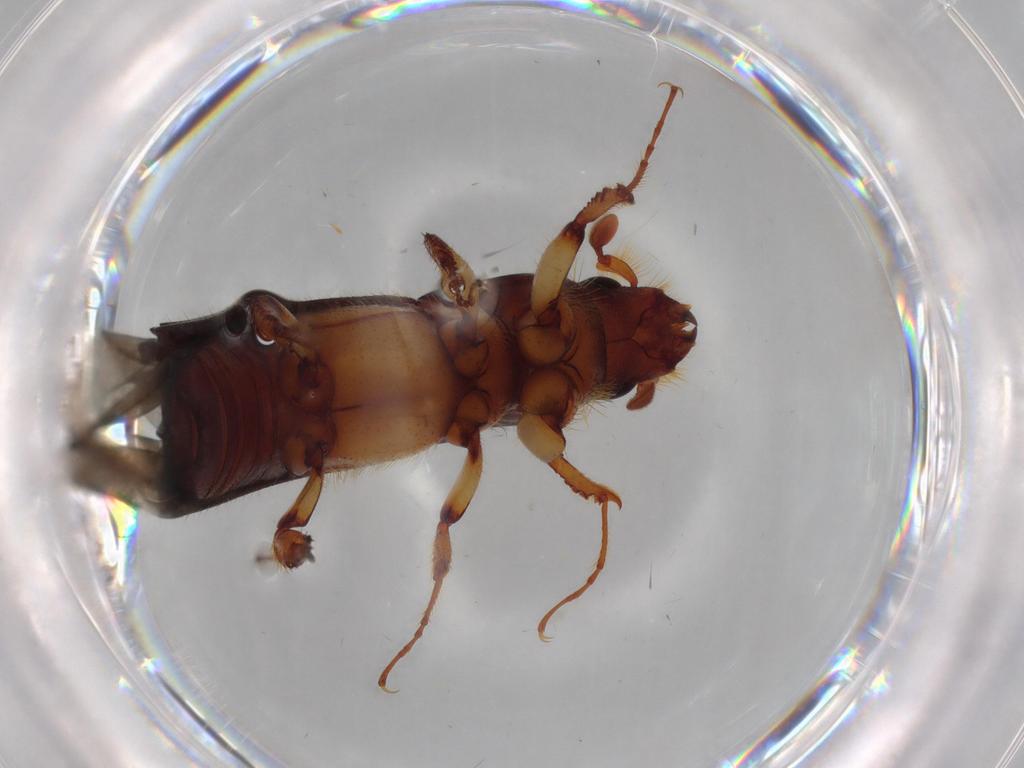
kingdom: Animalia
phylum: Arthropoda
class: Insecta
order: Coleoptera
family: Curculionidae
